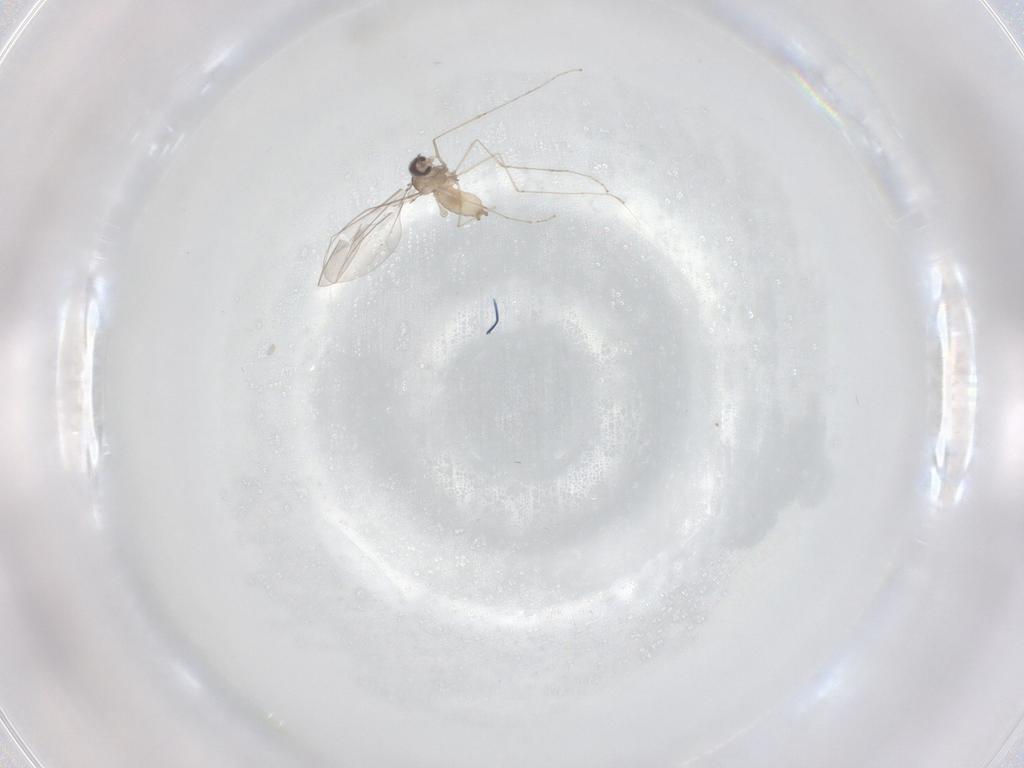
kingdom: Animalia
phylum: Arthropoda
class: Insecta
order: Diptera
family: Cecidomyiidae
